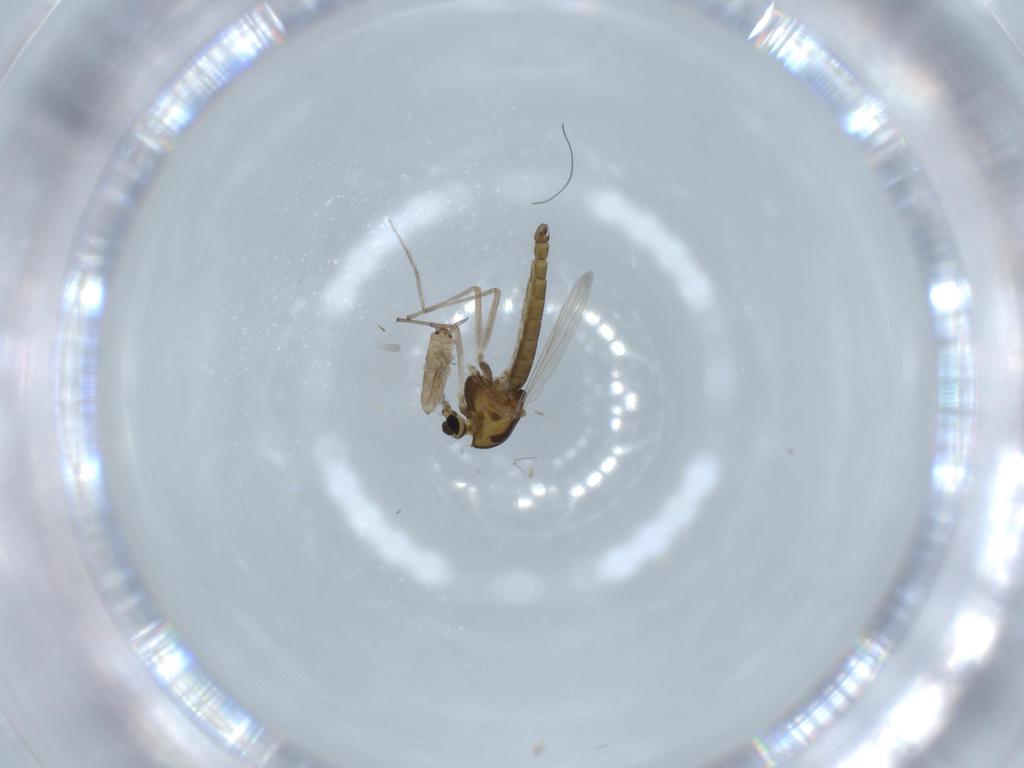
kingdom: Animalia
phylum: Arthropoda
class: Insecta
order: Diptera
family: Chironomidae
